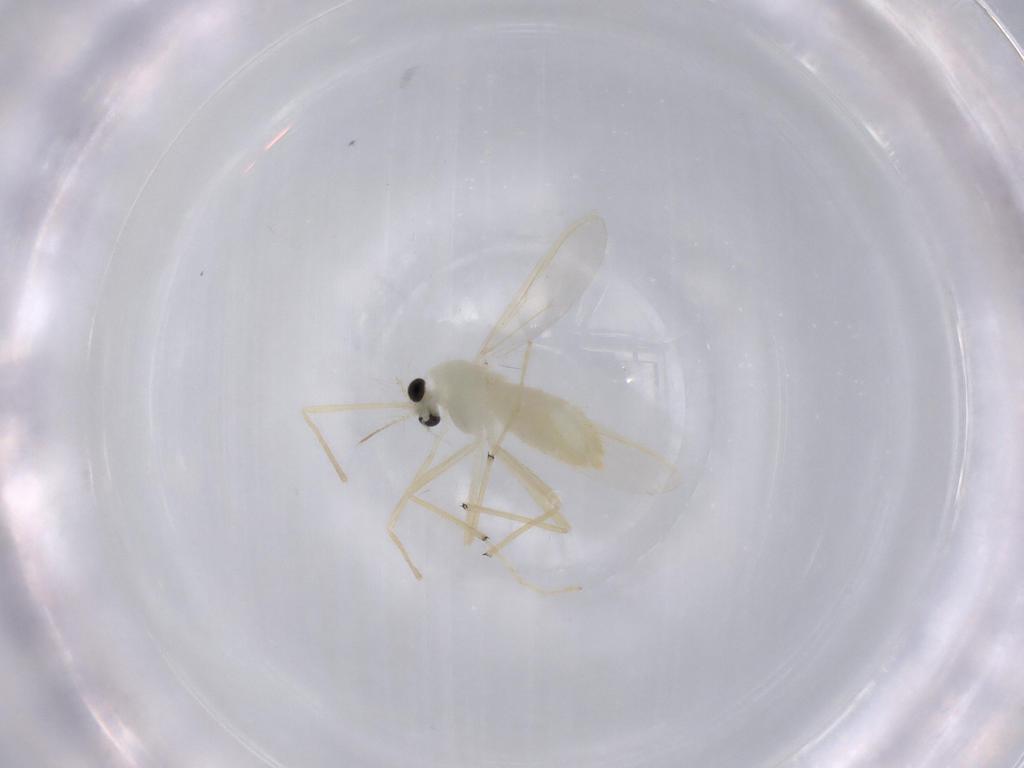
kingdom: Animalia
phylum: Arthropoda
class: Insecta
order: Diptera
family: Chironomidae
